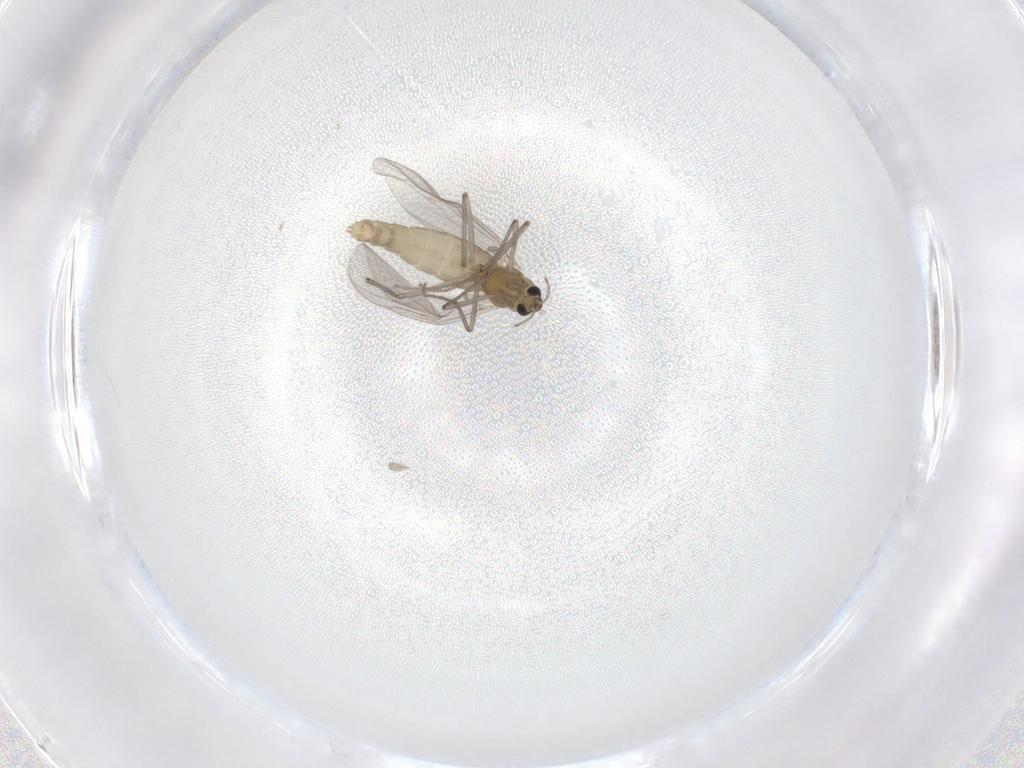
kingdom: Animalia
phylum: Arthropoda
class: Insecta
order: Diptera
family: Chironomidae
